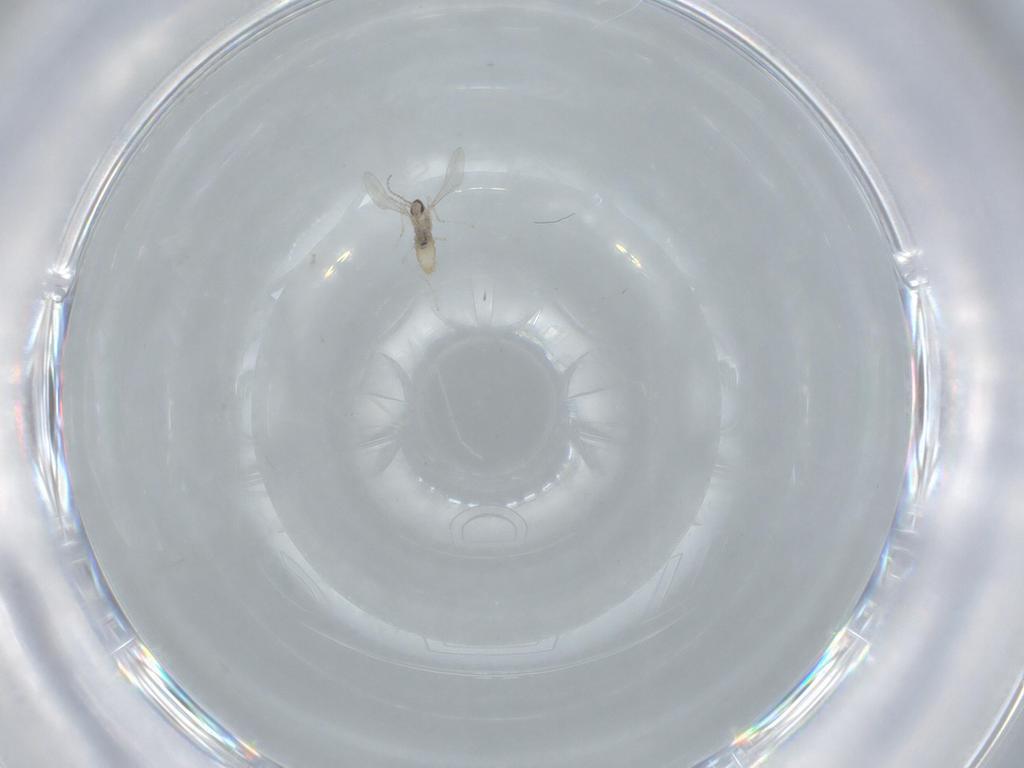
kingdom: Animalia
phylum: Arthropoda
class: Insecta
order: Diptera
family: Cecidomyiidae
